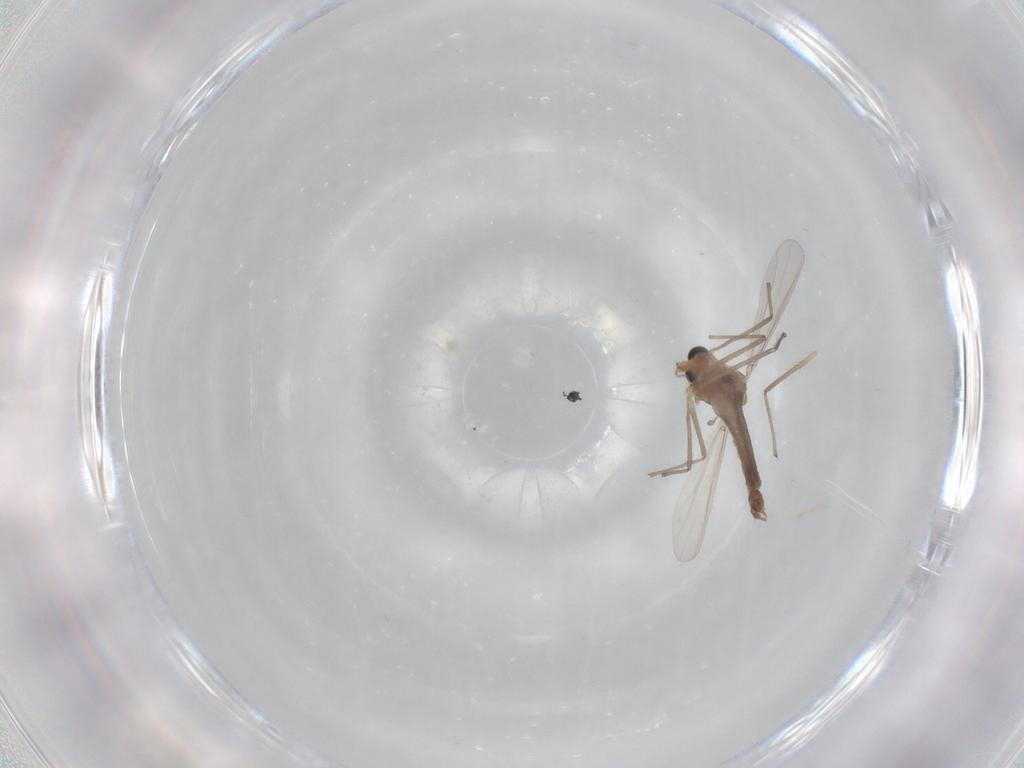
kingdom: Animalia
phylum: Arthropoda
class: Insecta
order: Diptera
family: Chironomidae
